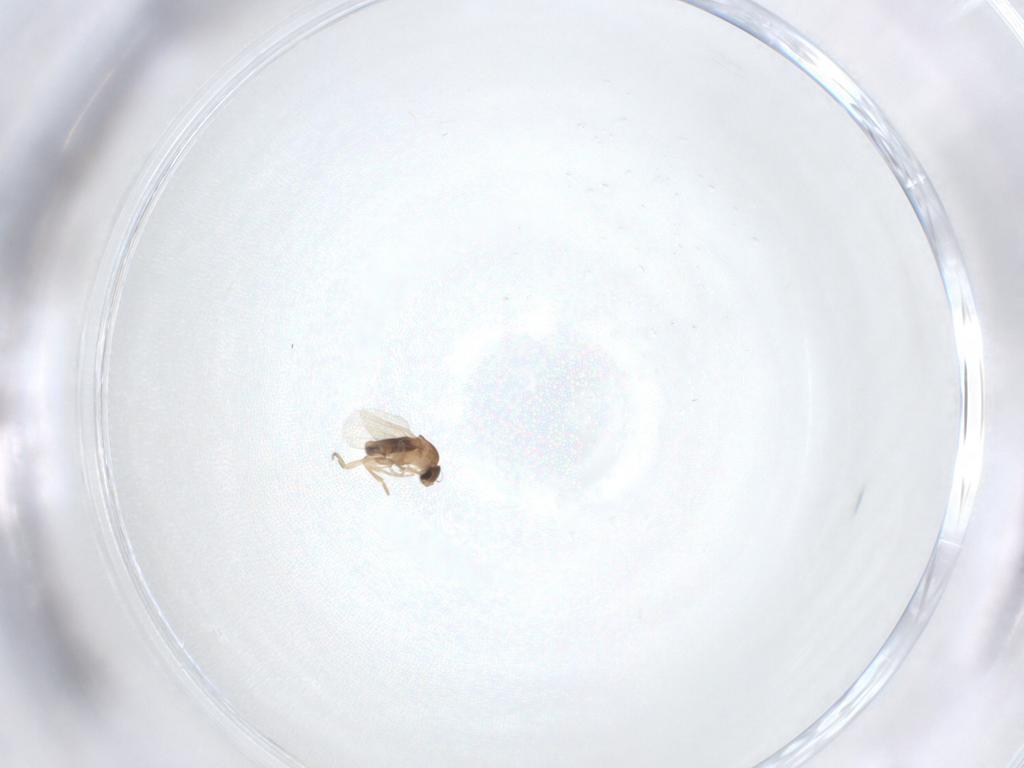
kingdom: Animalia
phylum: Arthropoda
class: Insecta
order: Diptera
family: Phoridae
